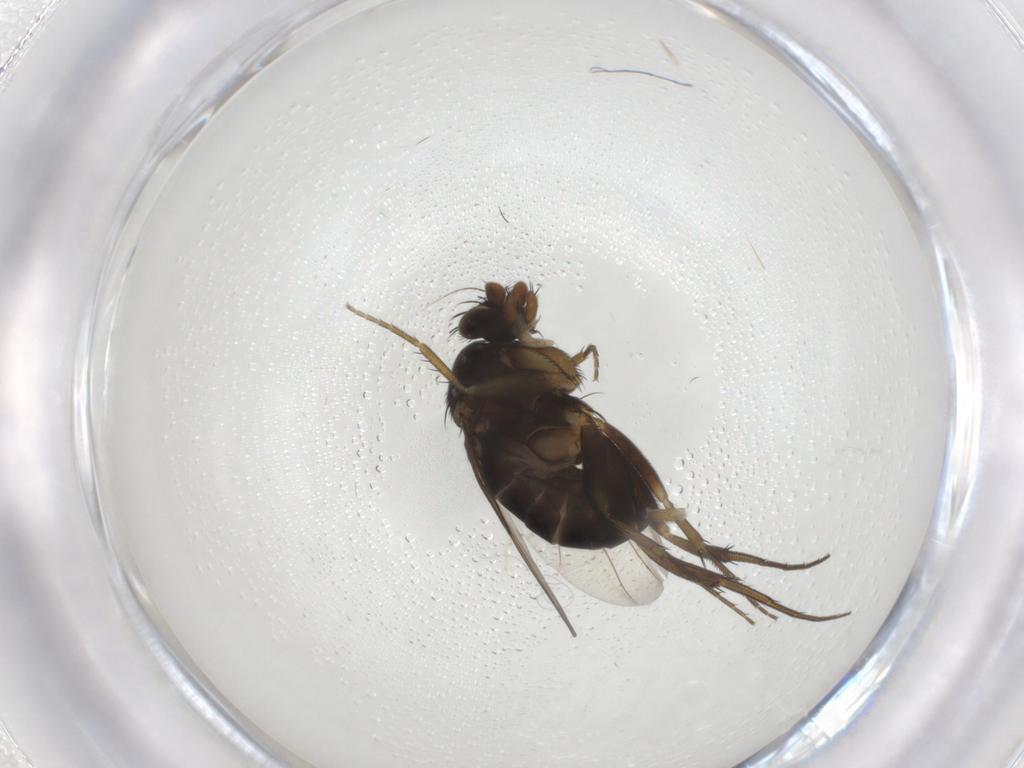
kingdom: Animalia
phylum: Arthropoda
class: Insecta
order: Diptera
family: Phoridae
